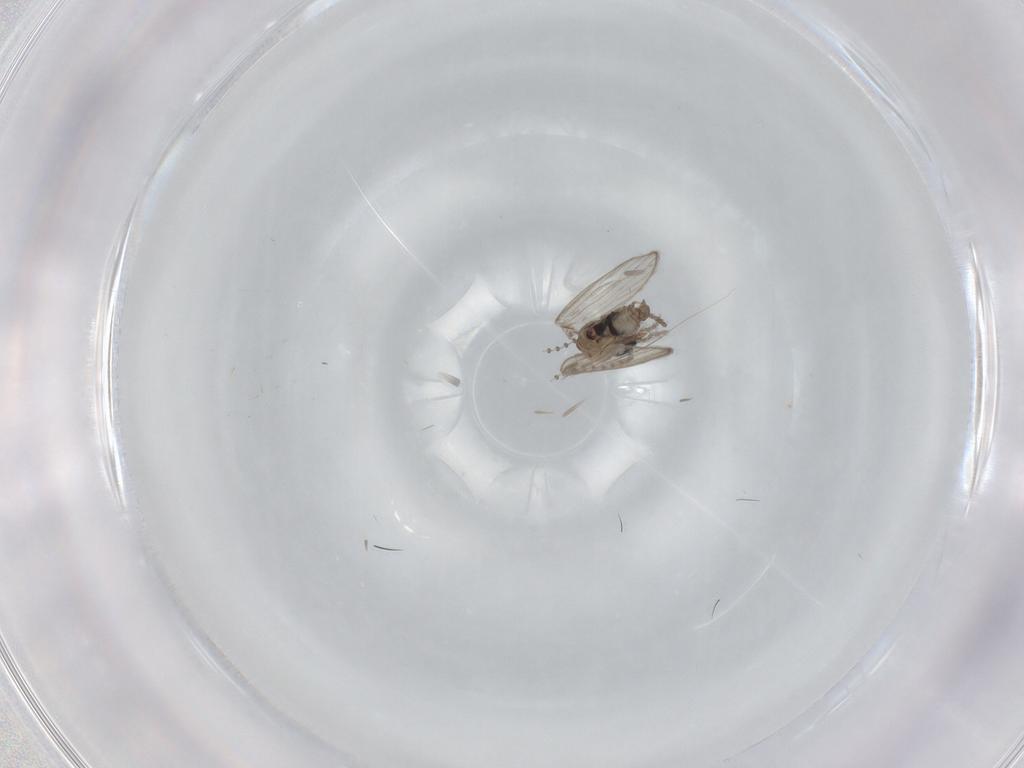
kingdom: Animalia
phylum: Arthropoda
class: Insecta
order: Diptera
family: Psychodidae
